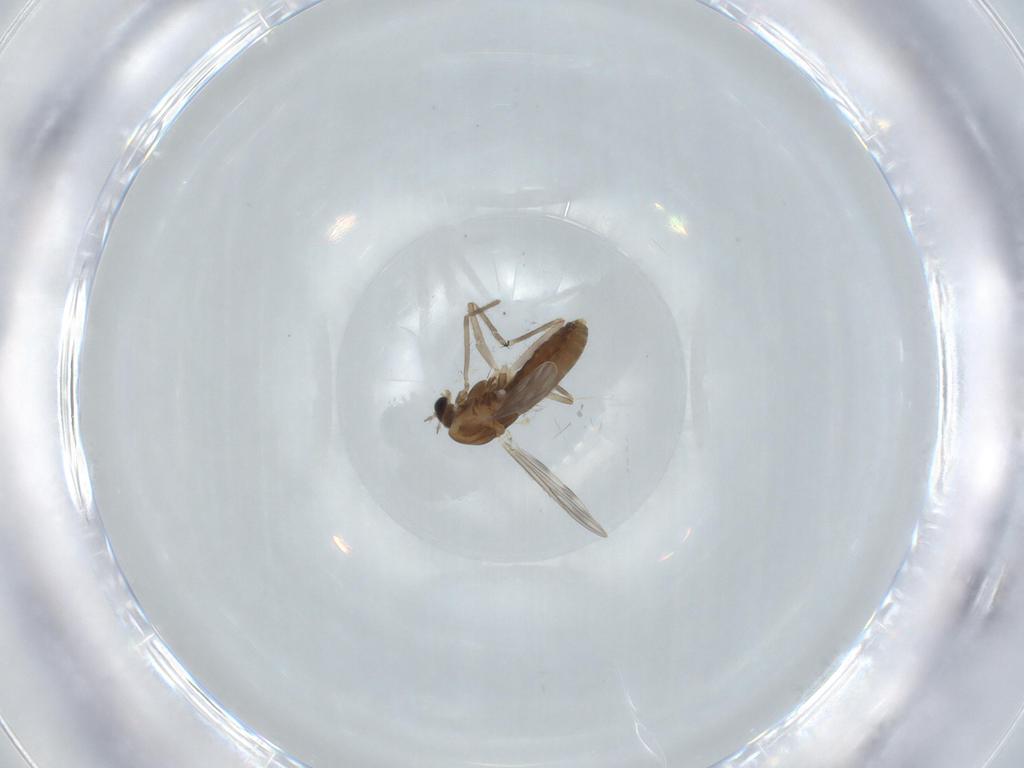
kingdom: Animalia
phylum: Arthropoda
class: Insecta
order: Diptera
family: Chironomidae
